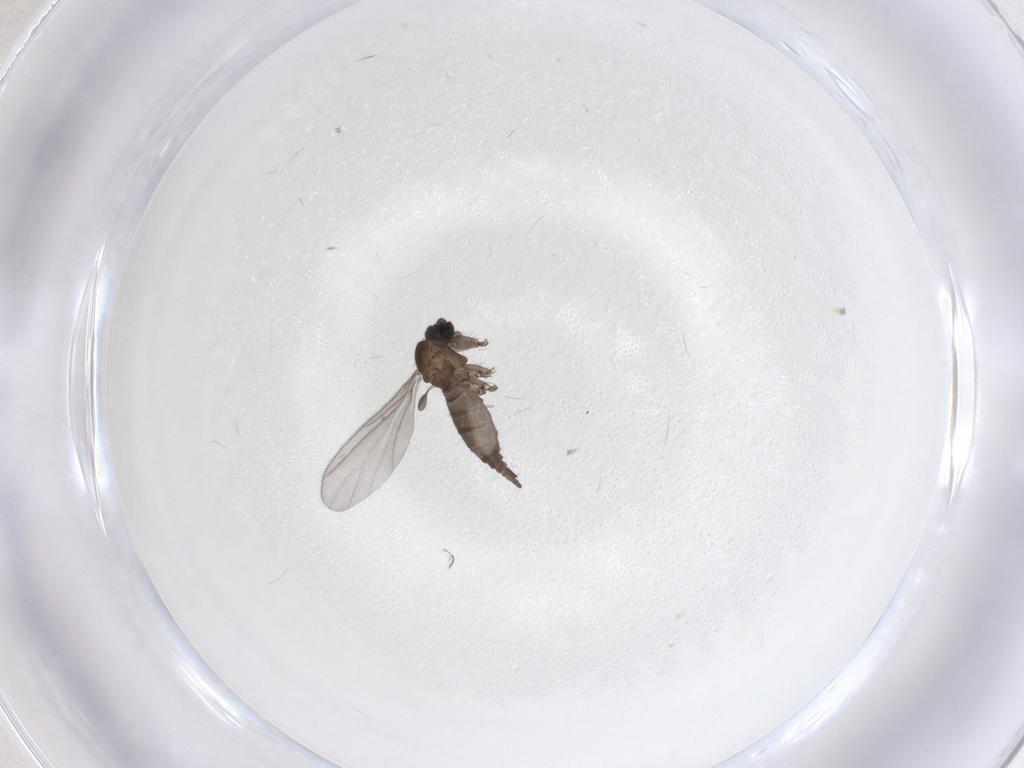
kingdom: Animalia
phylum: Arthropoda
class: Insecta
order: Diptera
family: Sciaridae
